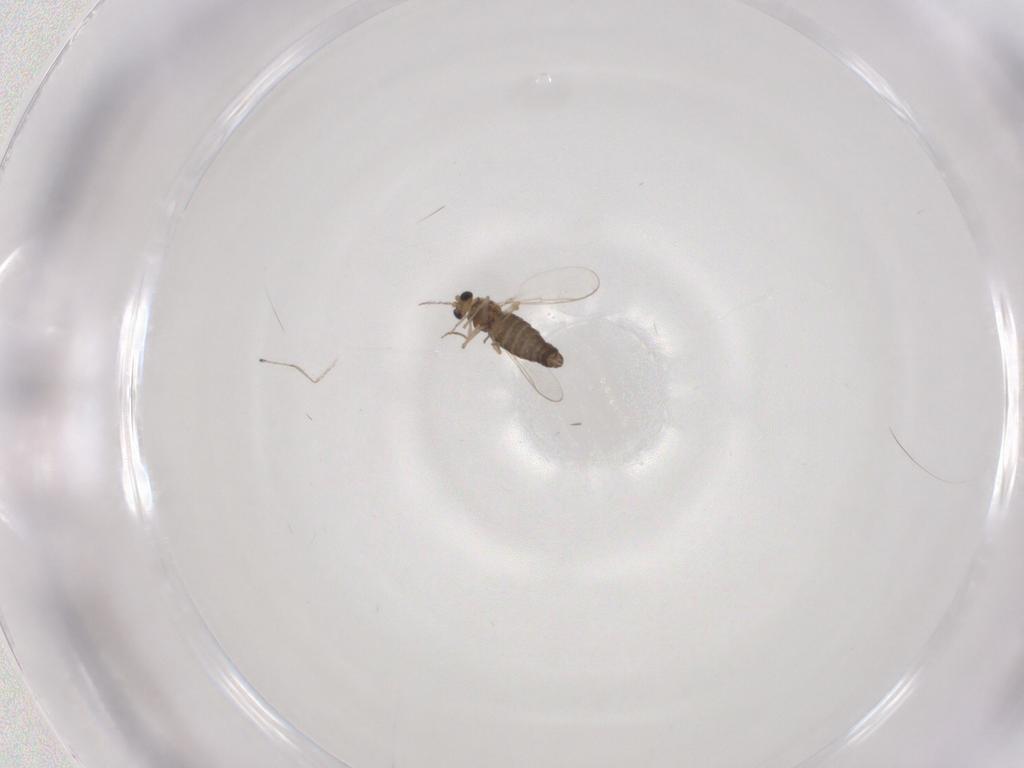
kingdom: Animalia
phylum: Arthropoda
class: Insecta
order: Diptera
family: Cecidomyiidae
